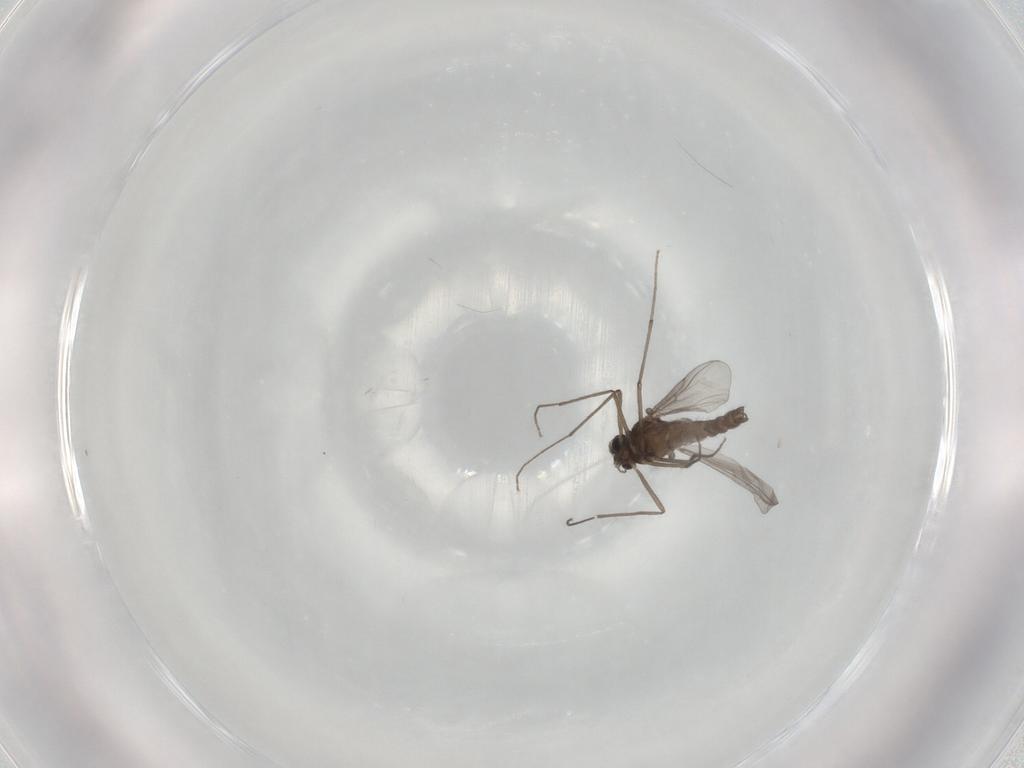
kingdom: Animalia
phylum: Arthropoda
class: Insecta
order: Diptera
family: Chironomidae
